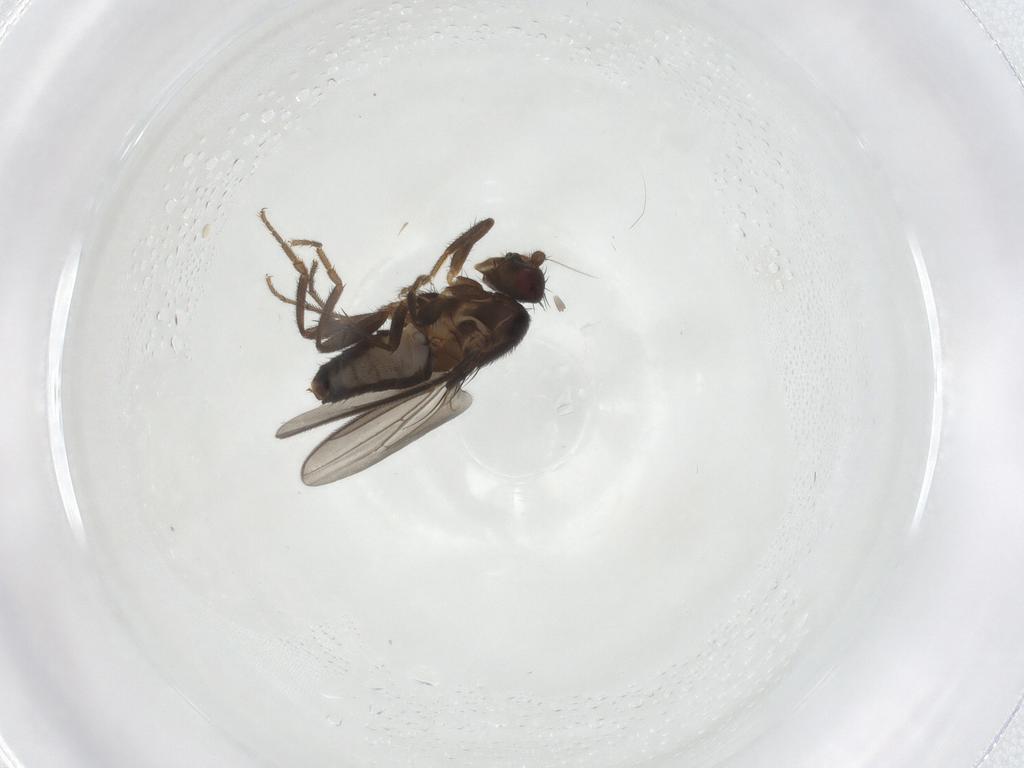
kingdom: Animalia
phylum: Arthropoda
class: Insecta
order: Diptera
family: Sphaeroceridae
